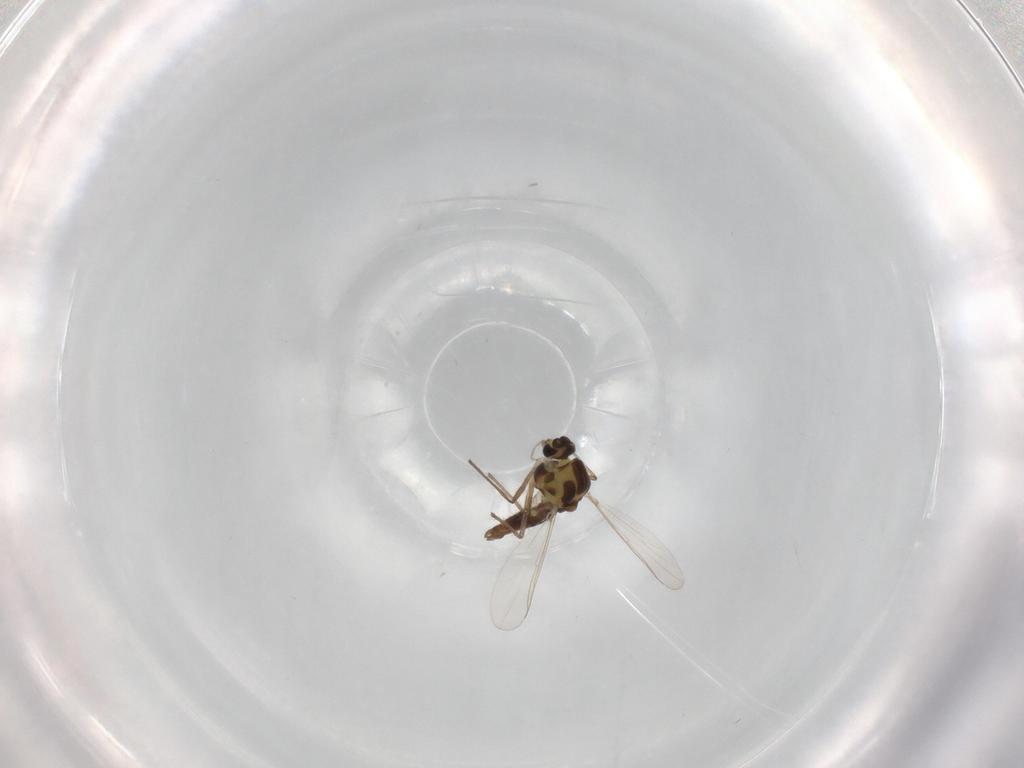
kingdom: Animalia
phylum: Arthropoda
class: Insecta
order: Diptera
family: Chironomidae
